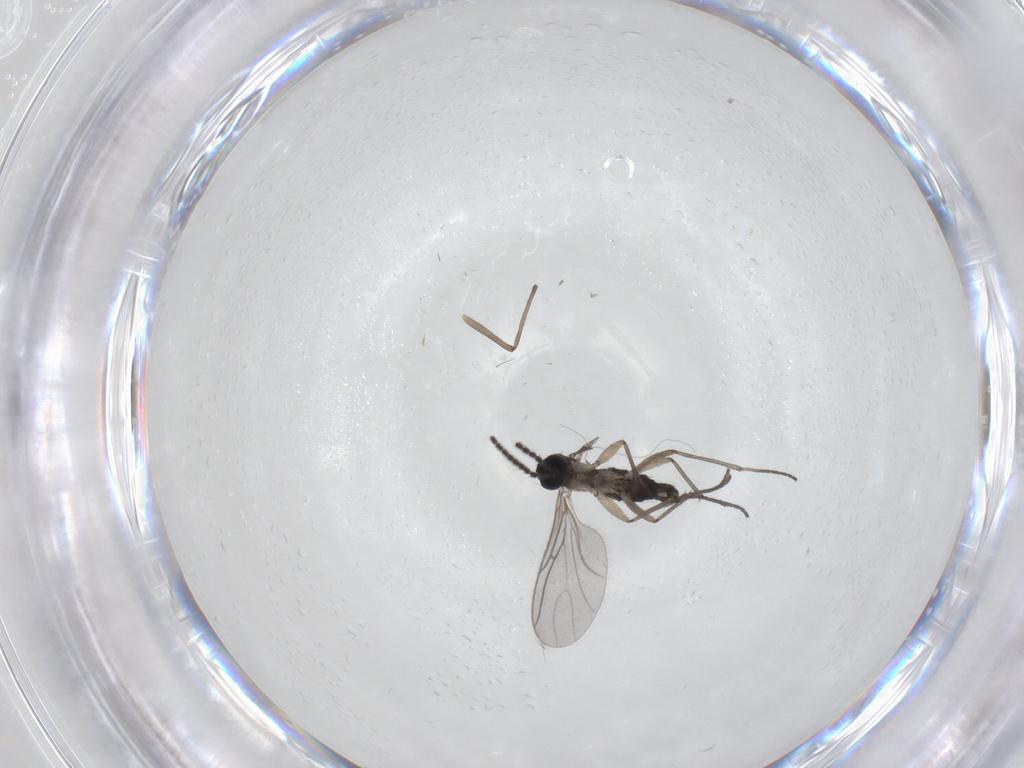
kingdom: Animalia
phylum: Arthropoda
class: Insecta
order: Diptera
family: Sciaridae
